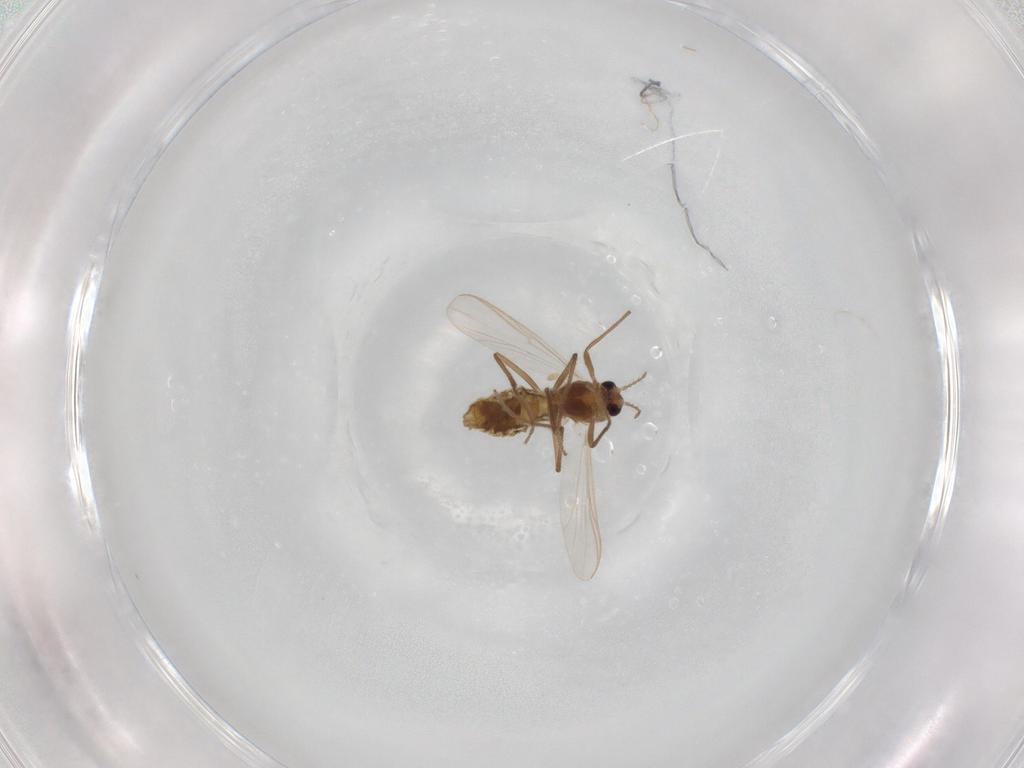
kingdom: Animalia
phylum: Arthropoda
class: Insecta
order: Diptera
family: Chironomidae
